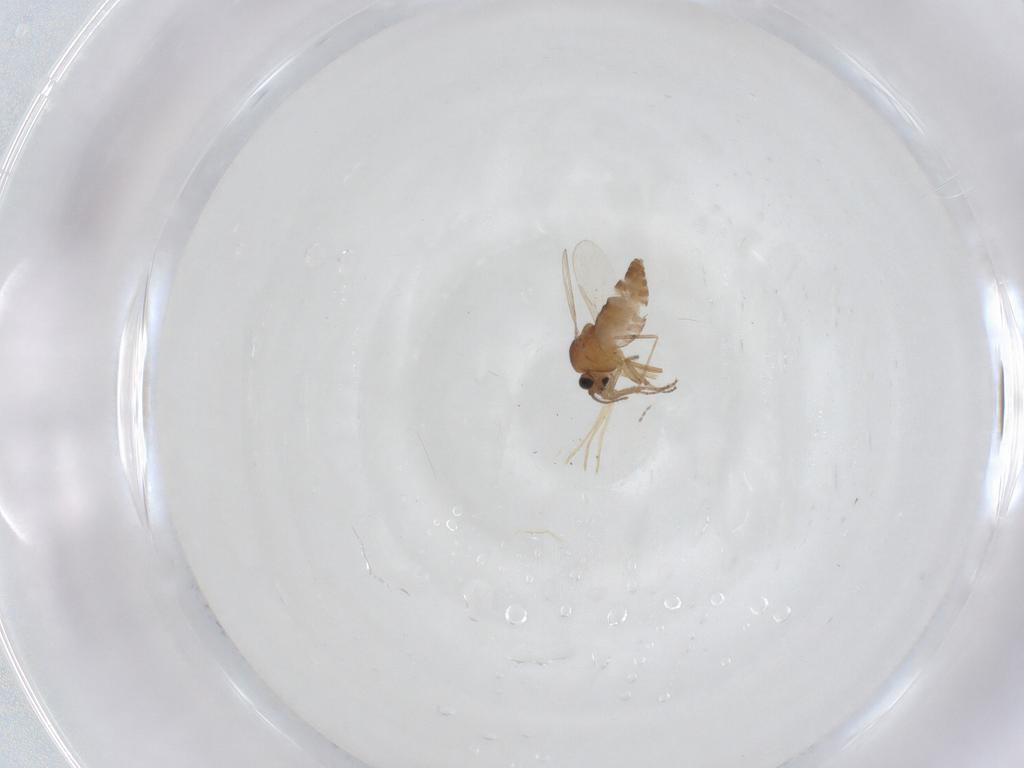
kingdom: Animalia
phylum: Arthropoda
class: Insecta
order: Diptera
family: Ceratopogonidae
